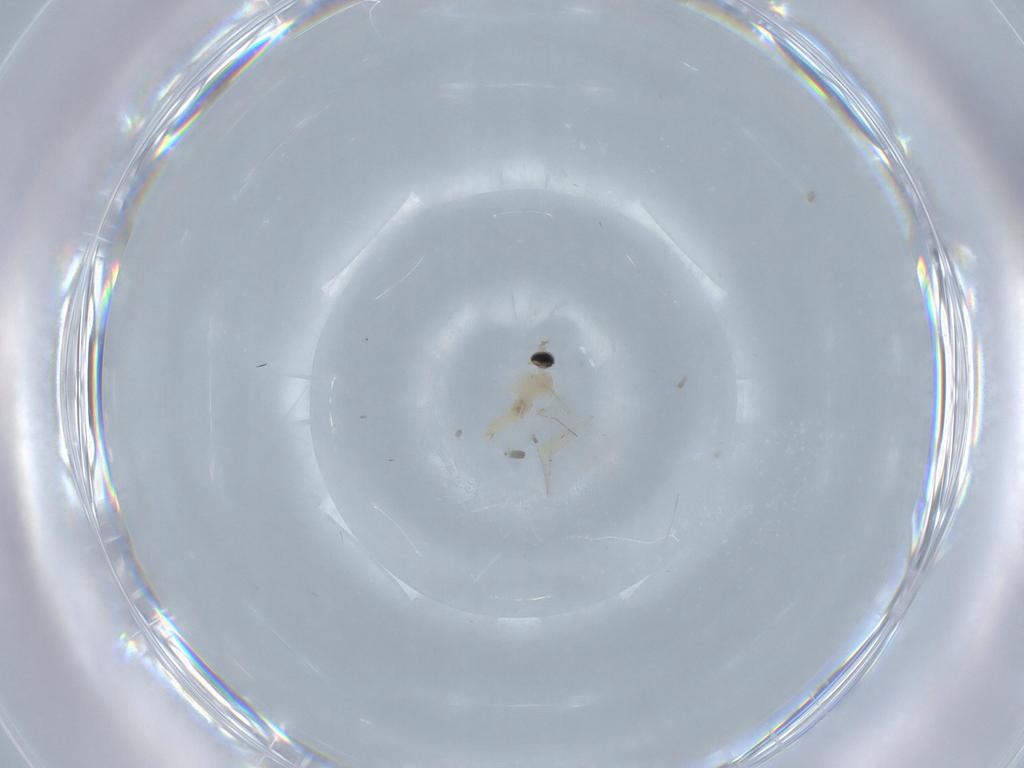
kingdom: Animalia
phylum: Arthropoda
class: Insecta
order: Diptera
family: Cecidomyiidae
